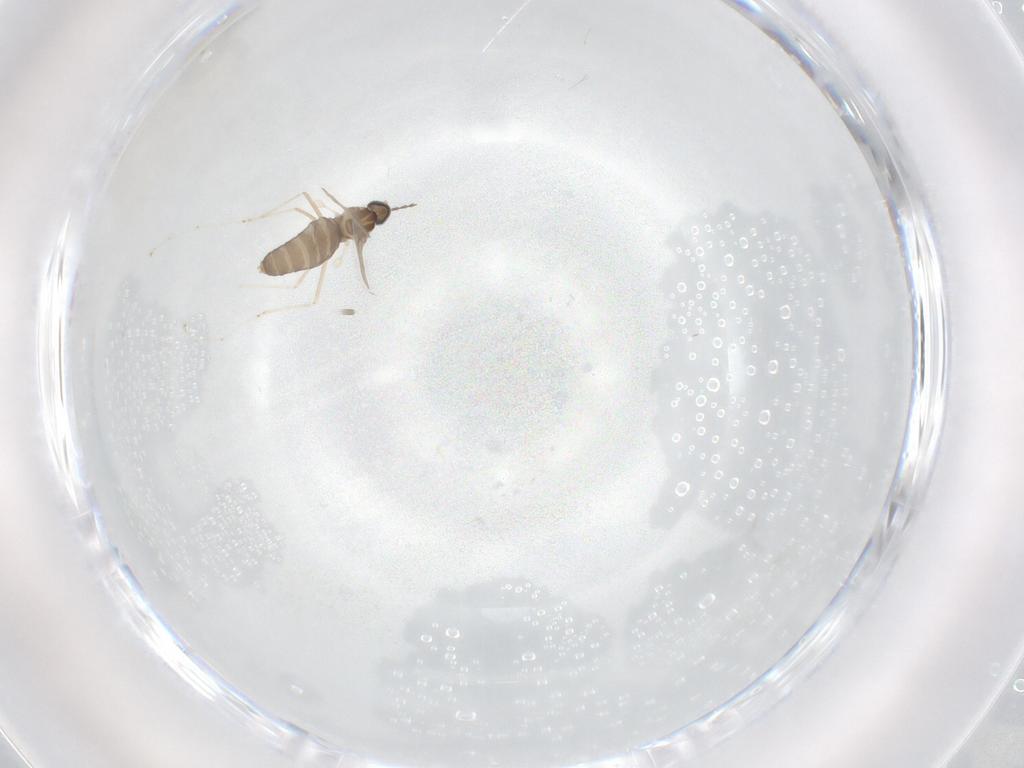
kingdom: Animalia
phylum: Arthropoda
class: Insecta
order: Diptera
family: Cecidomyiidae
